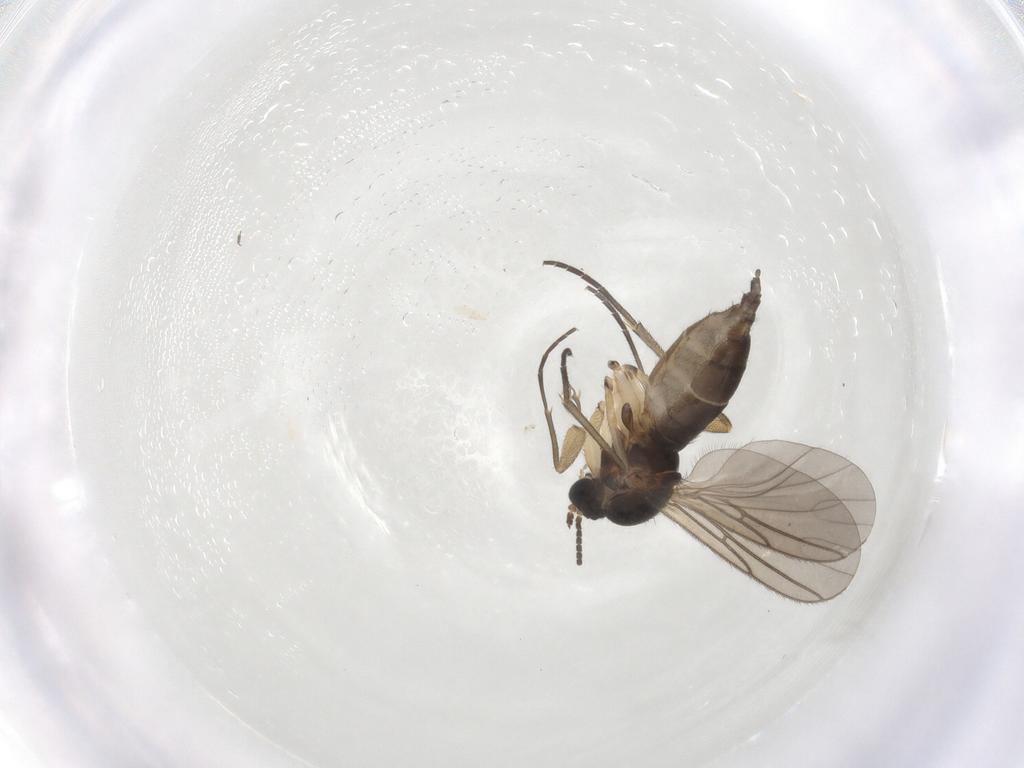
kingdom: Animalia
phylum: Arthropoda
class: Insecta
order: Diptera
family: Sciaridae
